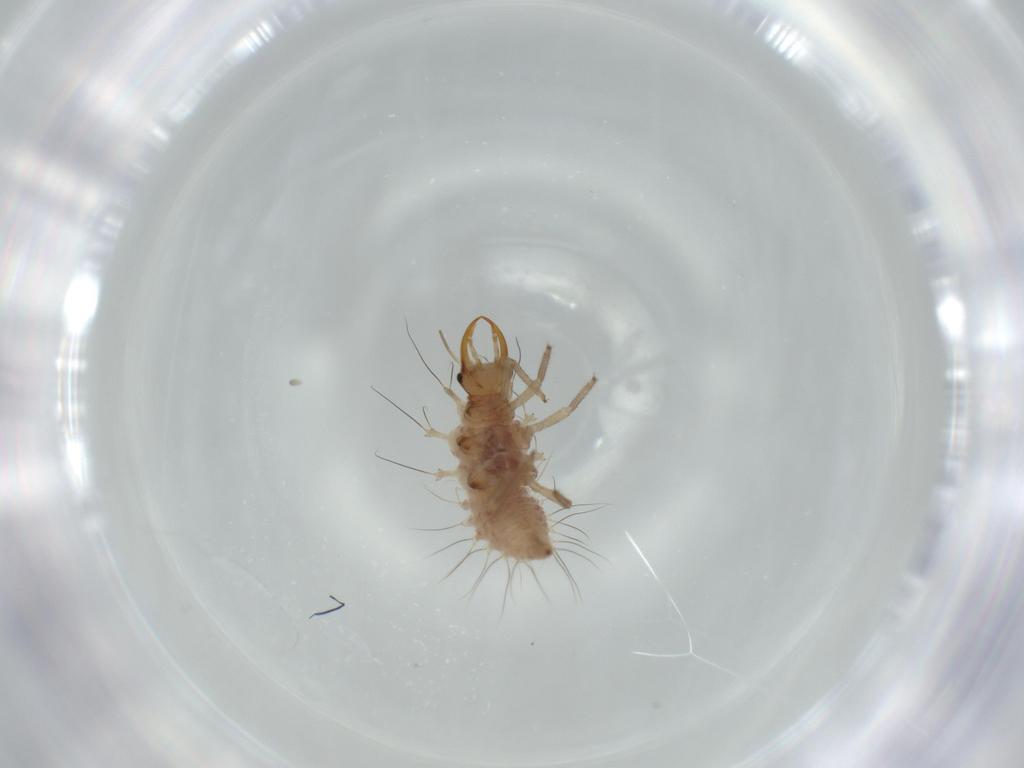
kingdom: Animalia
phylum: Arthropoda
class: Insecta
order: Neuroptera
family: Chrysopidae
